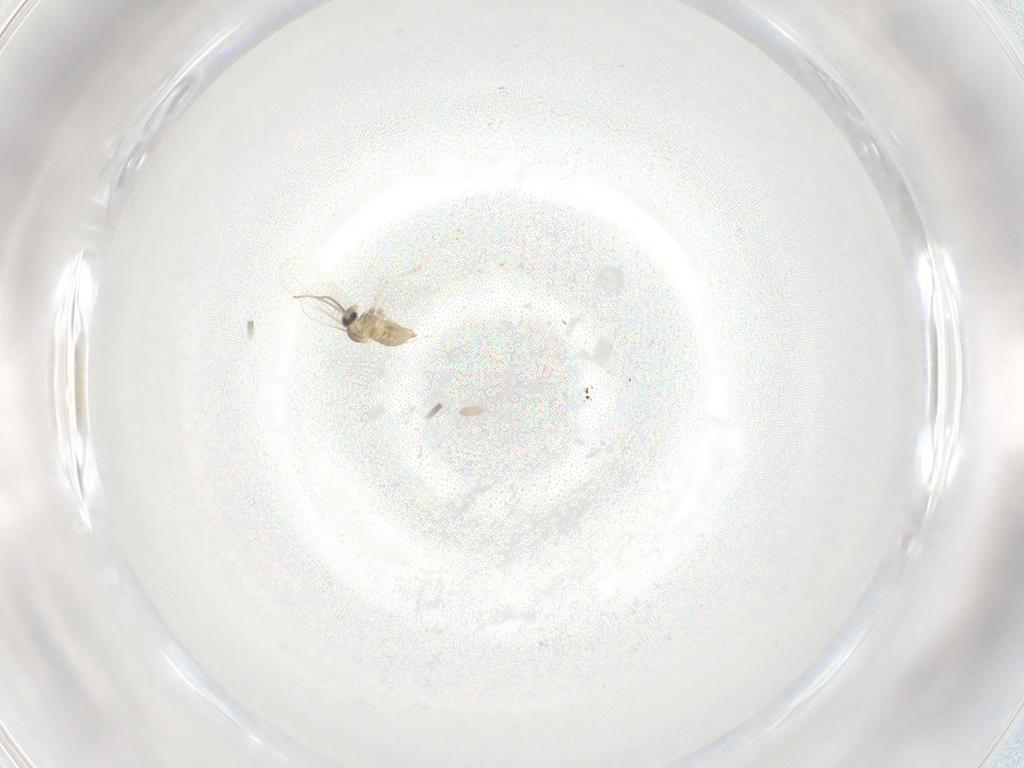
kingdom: Animalia
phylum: Arthropoda
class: Insecta
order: Diptera
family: Cecidomyiidae
